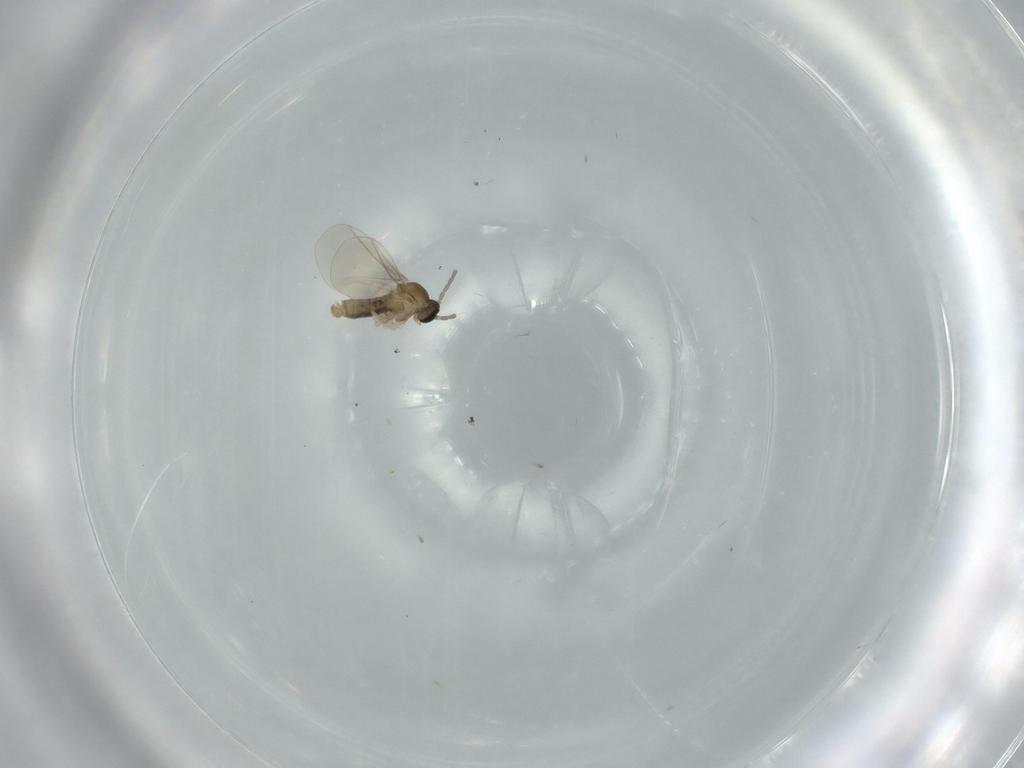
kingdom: Animalia
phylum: Arthropoda
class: Insecta
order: Diptera
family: Cecidomyiidae
